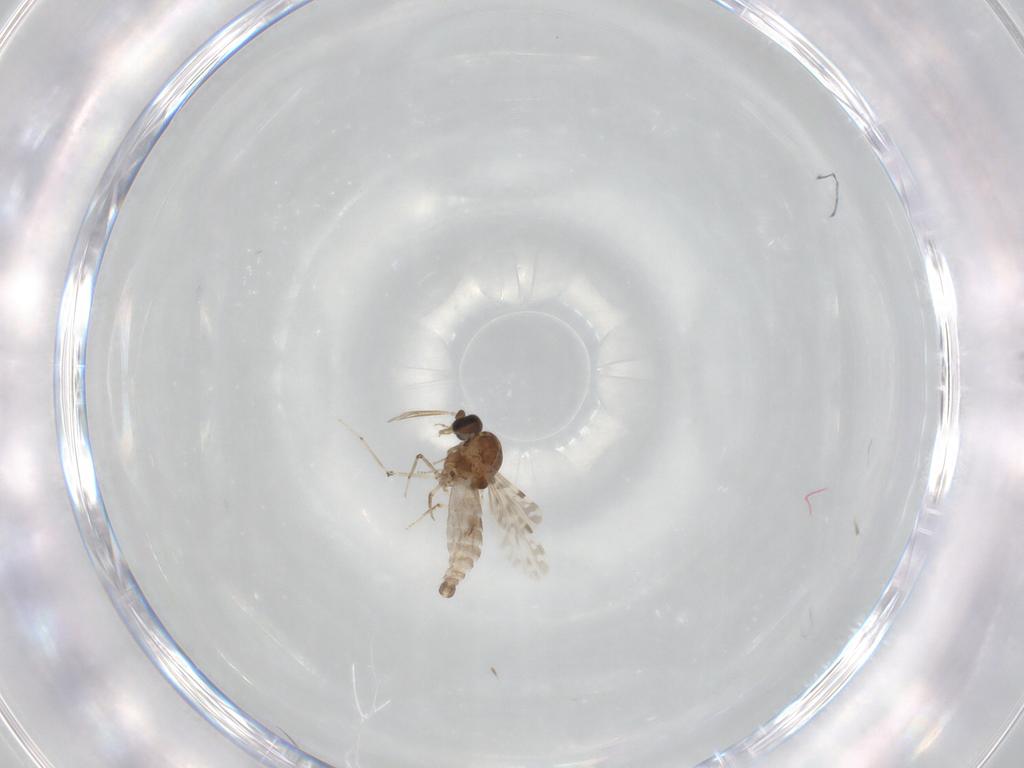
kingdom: Animalia
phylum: Arthropoda
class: Insecta
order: Diptera
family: Ceratopogonidae
